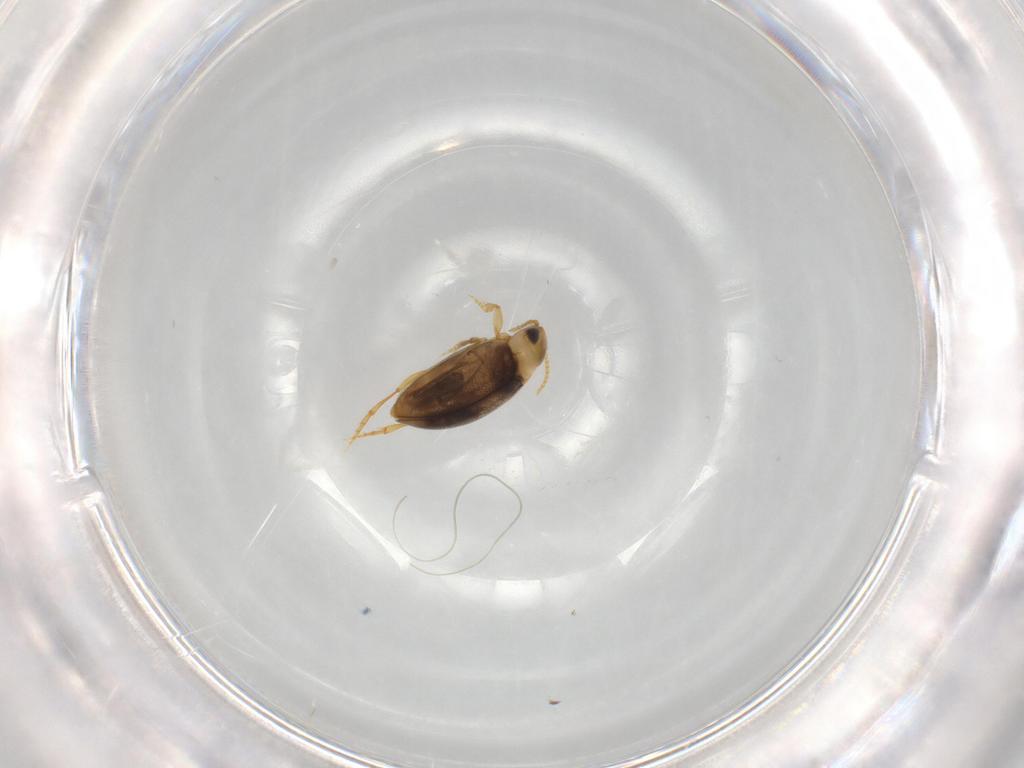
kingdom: Animalia
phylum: Arthropoda
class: Insecta
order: Coleoptera
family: Dytiscidae
